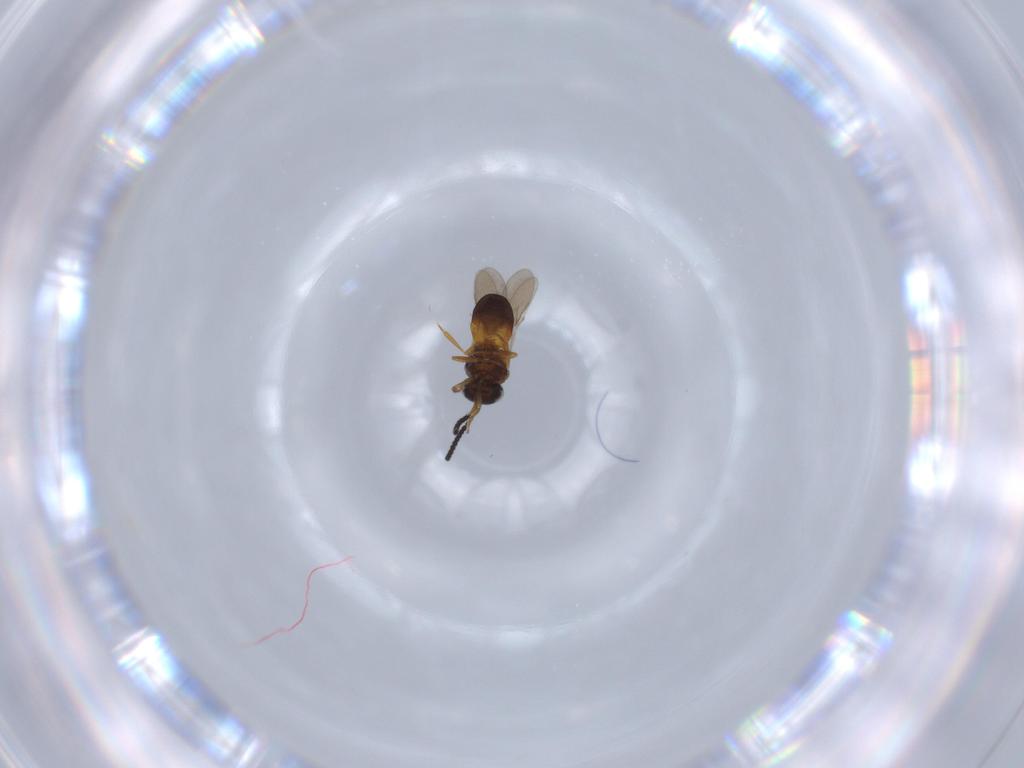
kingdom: Animalia
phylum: Arthropoda
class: Insecta
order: Hymenoptera
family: Scelionidae
